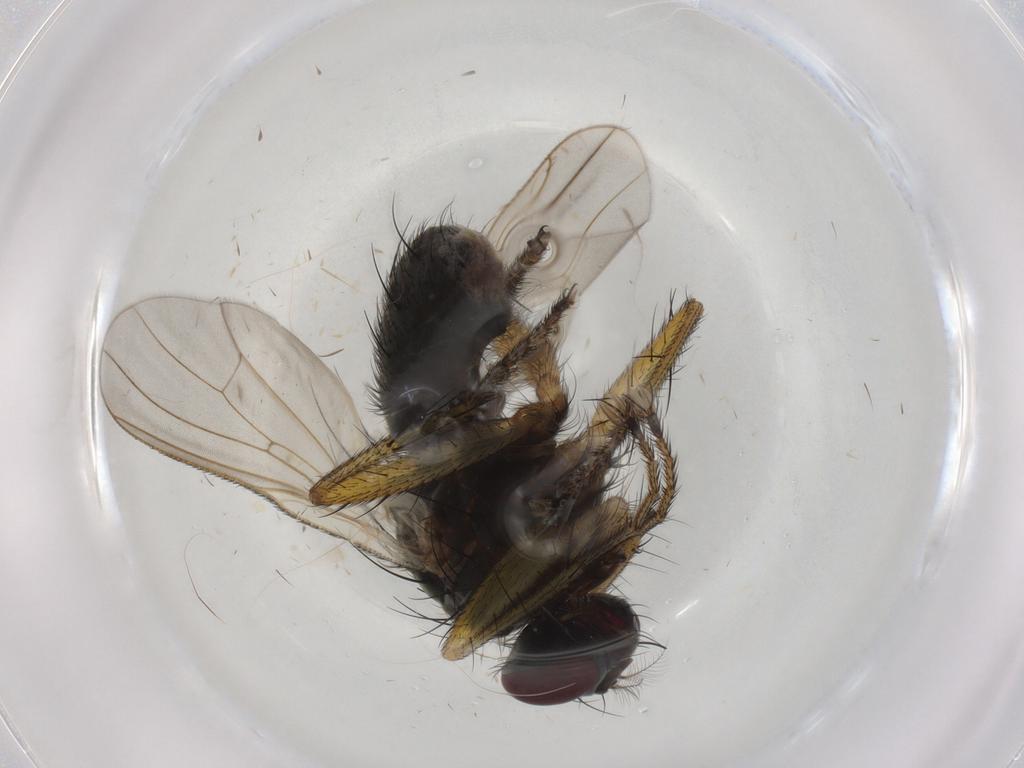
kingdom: Animalia
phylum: Arthropoda
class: Insecta
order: Diptera
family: Muscidae
